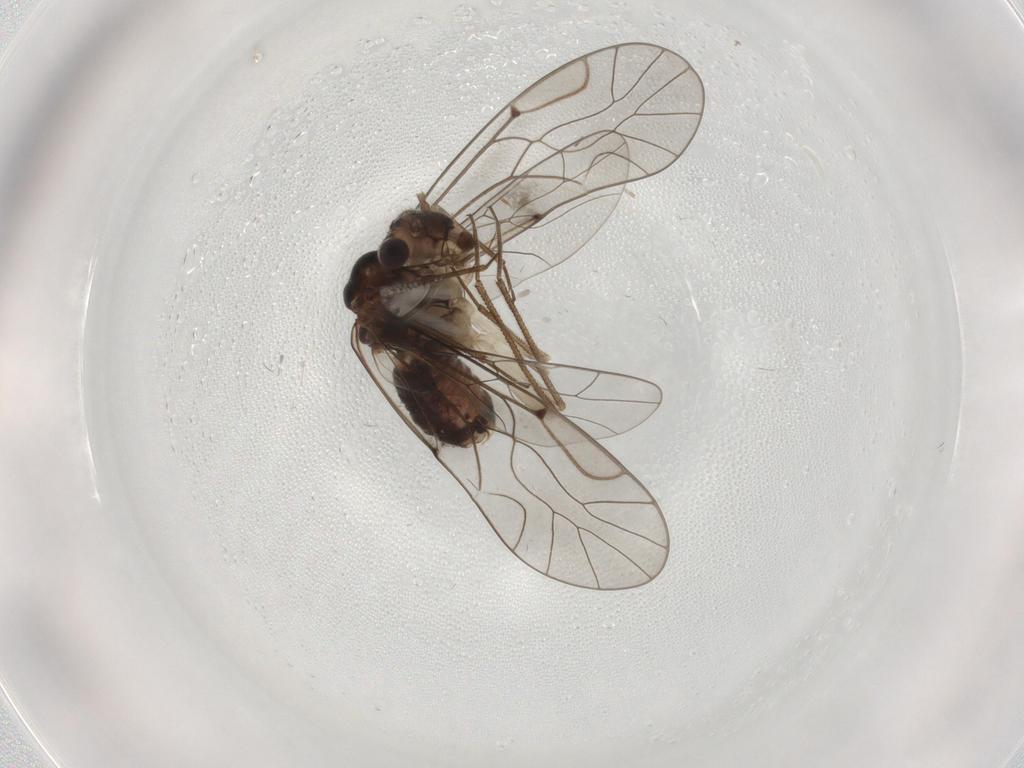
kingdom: Animalia
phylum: Arthropoda
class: Insecta
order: Psocodea
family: Lachesillidae
